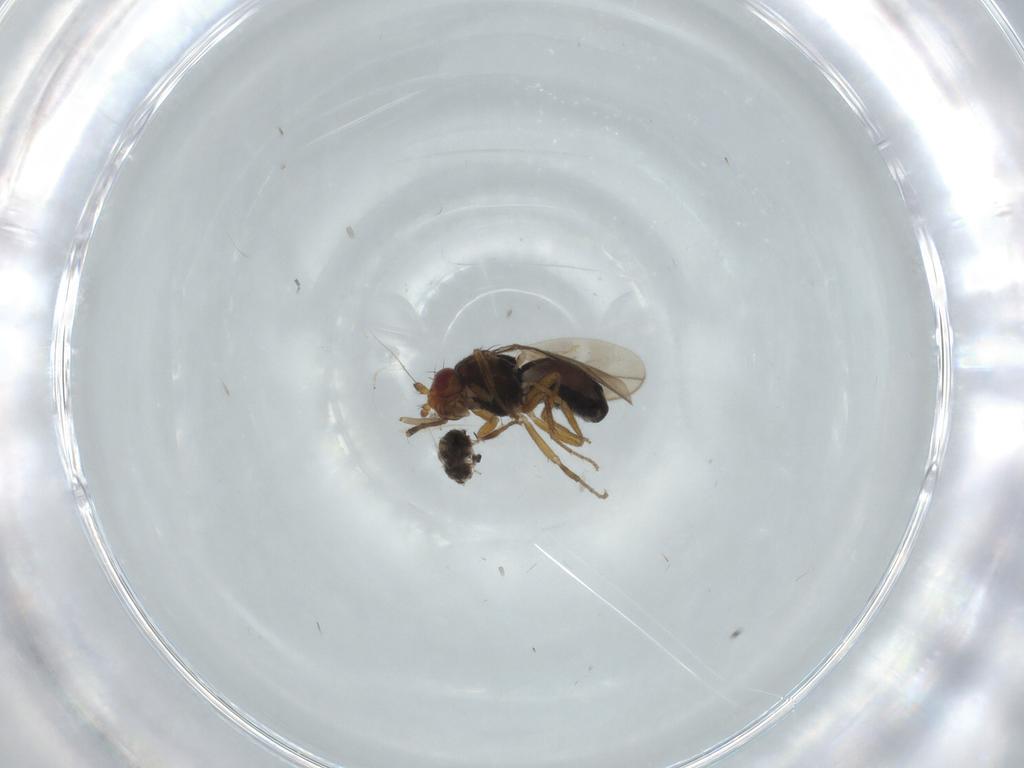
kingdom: Animalia
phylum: Arthropoda
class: Insecta
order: Diptera
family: Sphaeroceridae
